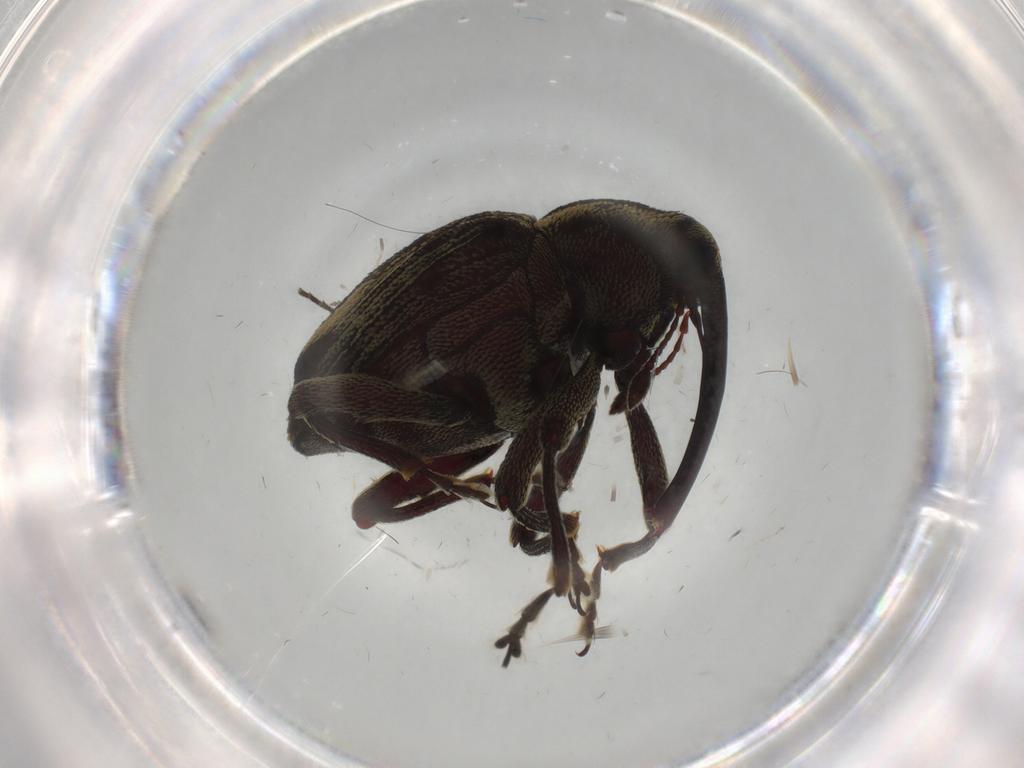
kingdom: Animalia
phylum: Arthropoda
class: Insecta
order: Coleoptera
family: Curculionidae
